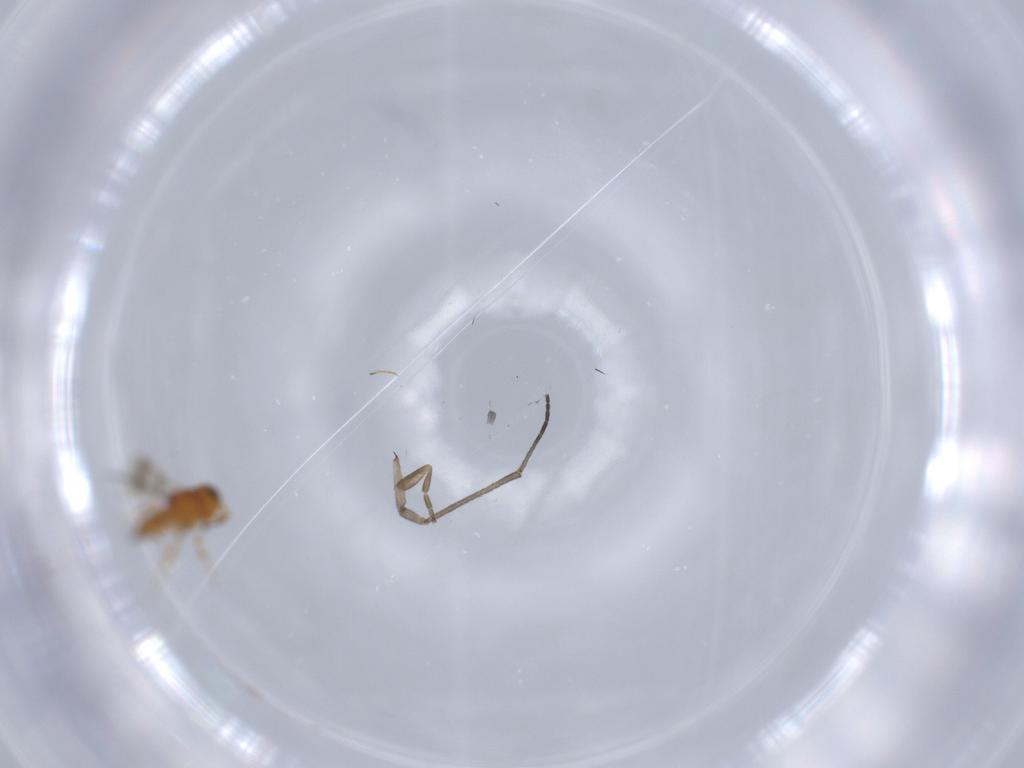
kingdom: Animalia
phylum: Arthropoda
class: Insecta
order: Hymenoptera
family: Scelionidae
